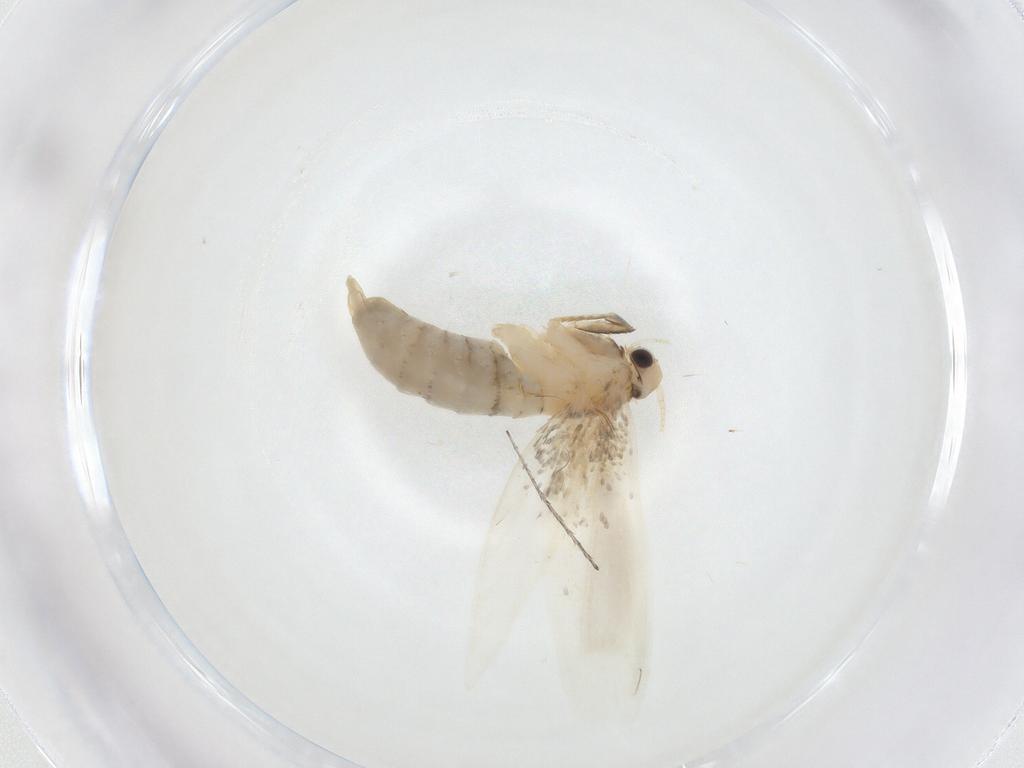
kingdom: Animalia
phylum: Arthropoda
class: Insecta
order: Lepidoptera
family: Tineidae
